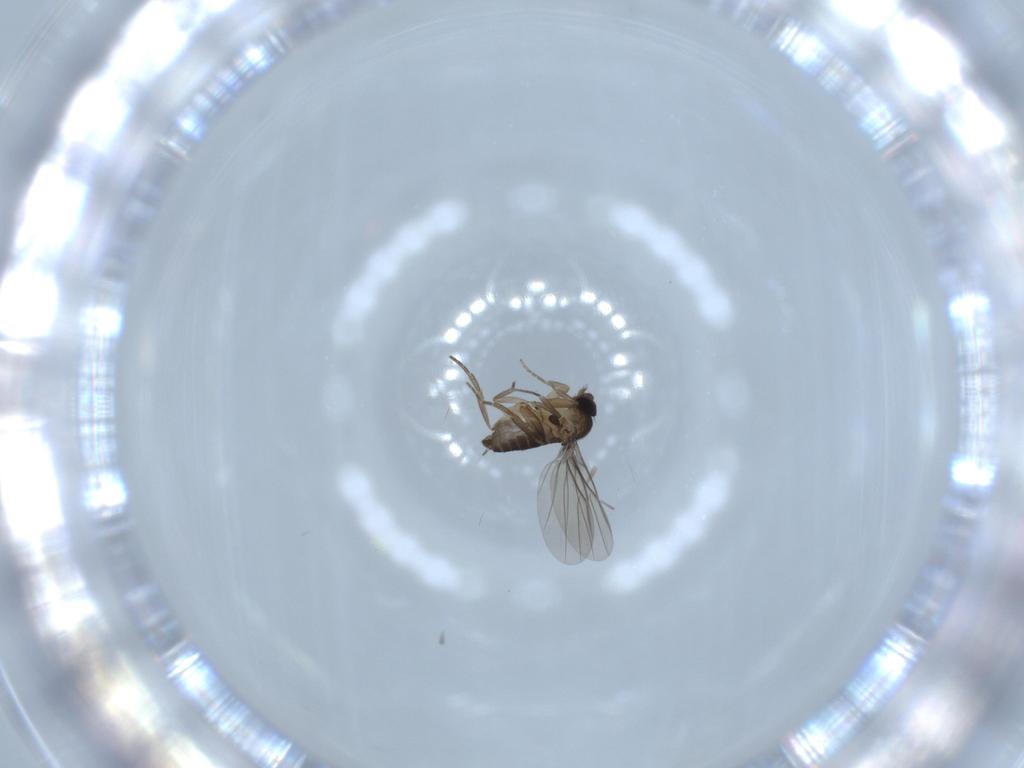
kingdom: Animalia
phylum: Arthropoda
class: Insecta
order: Diptera
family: Phoridae
